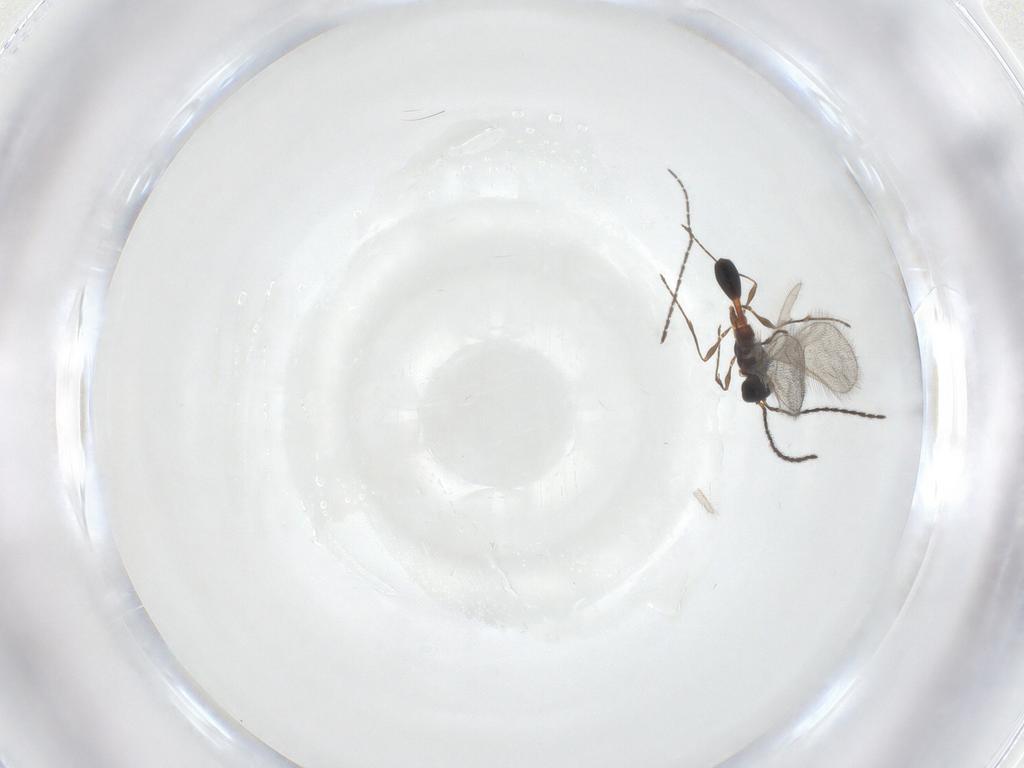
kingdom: Animalia
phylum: Arthropoda
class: Insecta
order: Hymenoptera
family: Diapriidae
